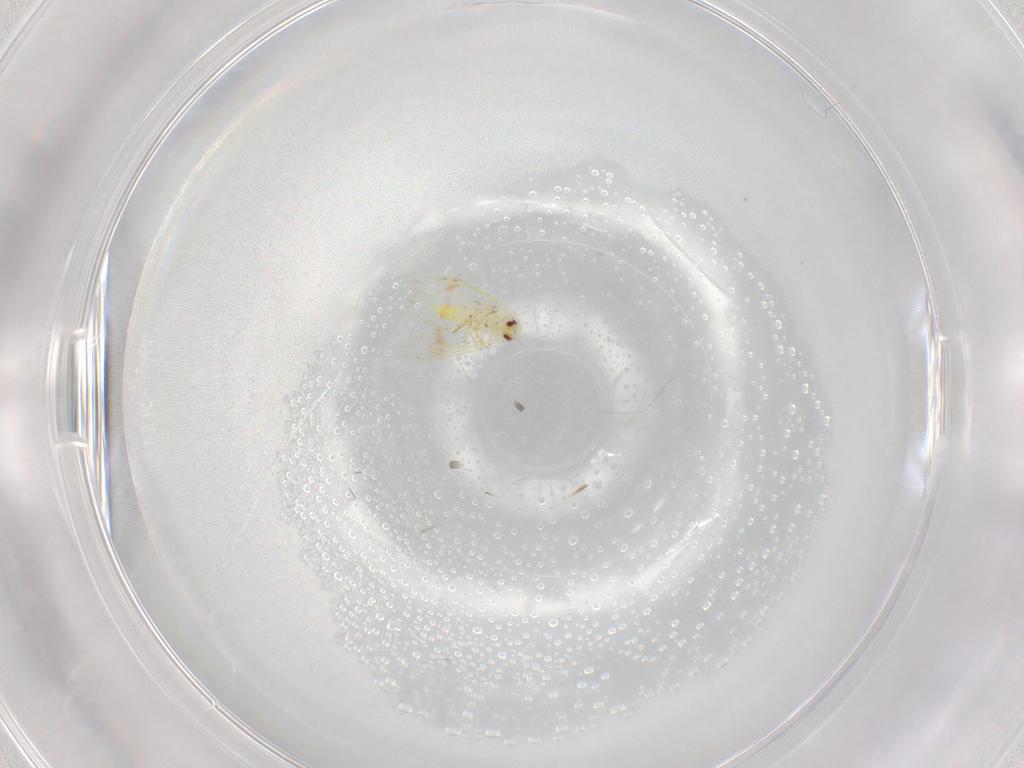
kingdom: Animalia
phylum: Arthropoda
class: Insecta
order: Hemiptera
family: Aleyrodidae
